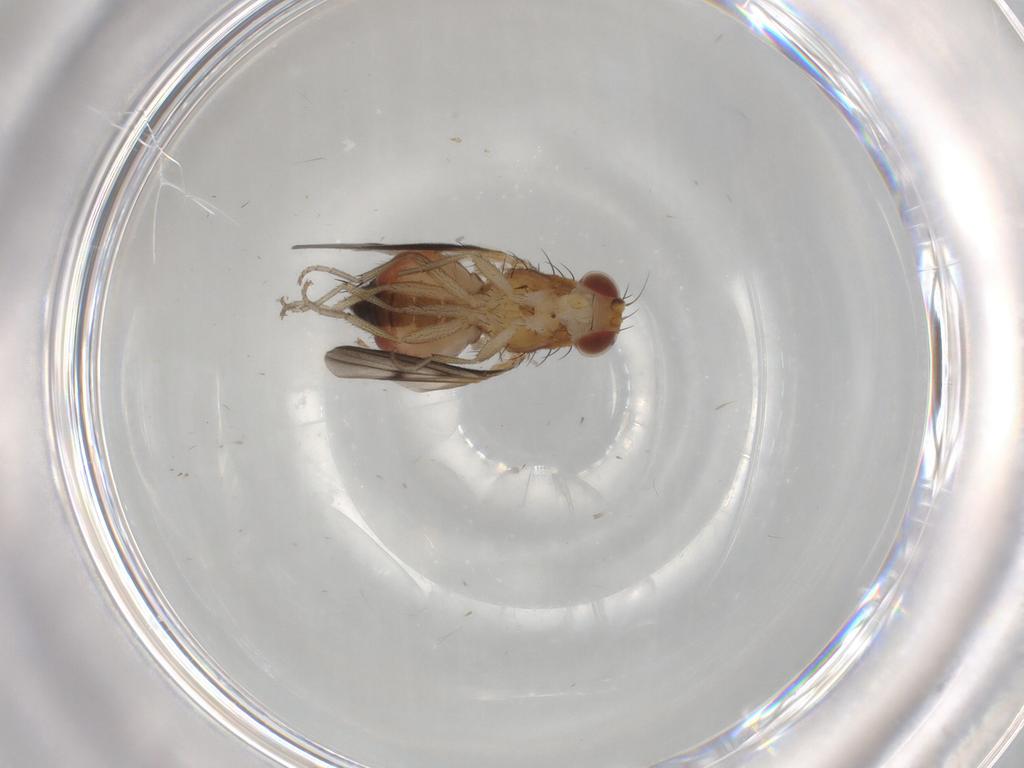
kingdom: Animalia
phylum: Arthropoda
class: Insecta
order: Diptera
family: Heleomyzidae
